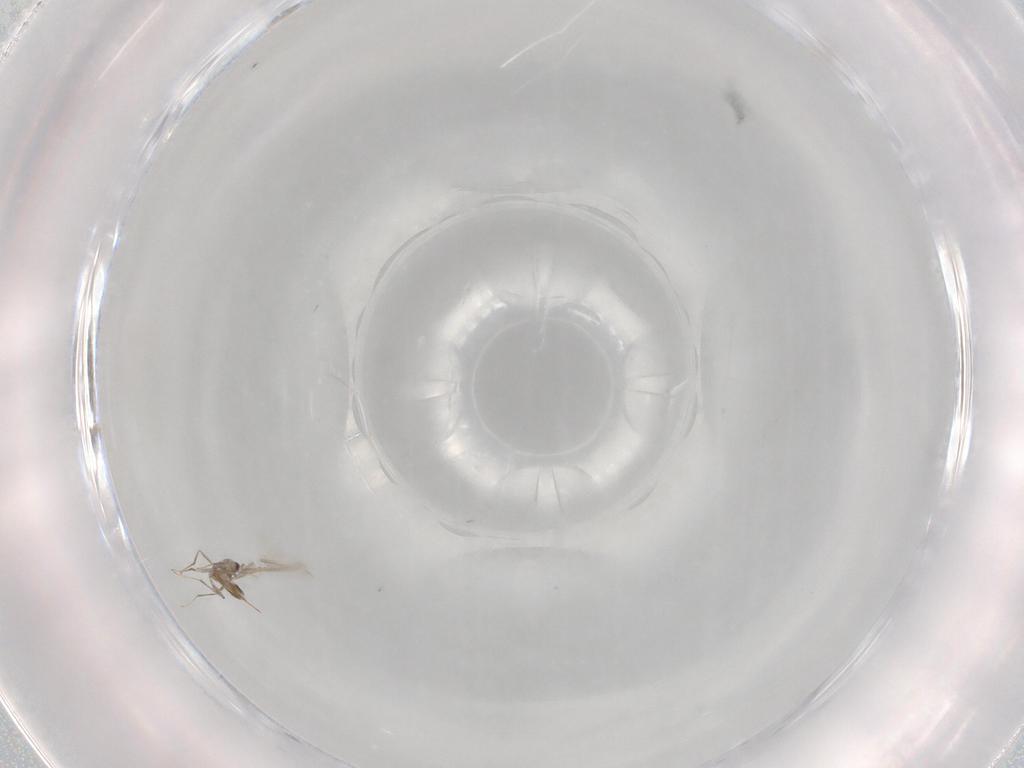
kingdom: Animalia
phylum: Arthropoda
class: Insecta
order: Hymenoptera
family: Mymaridae
